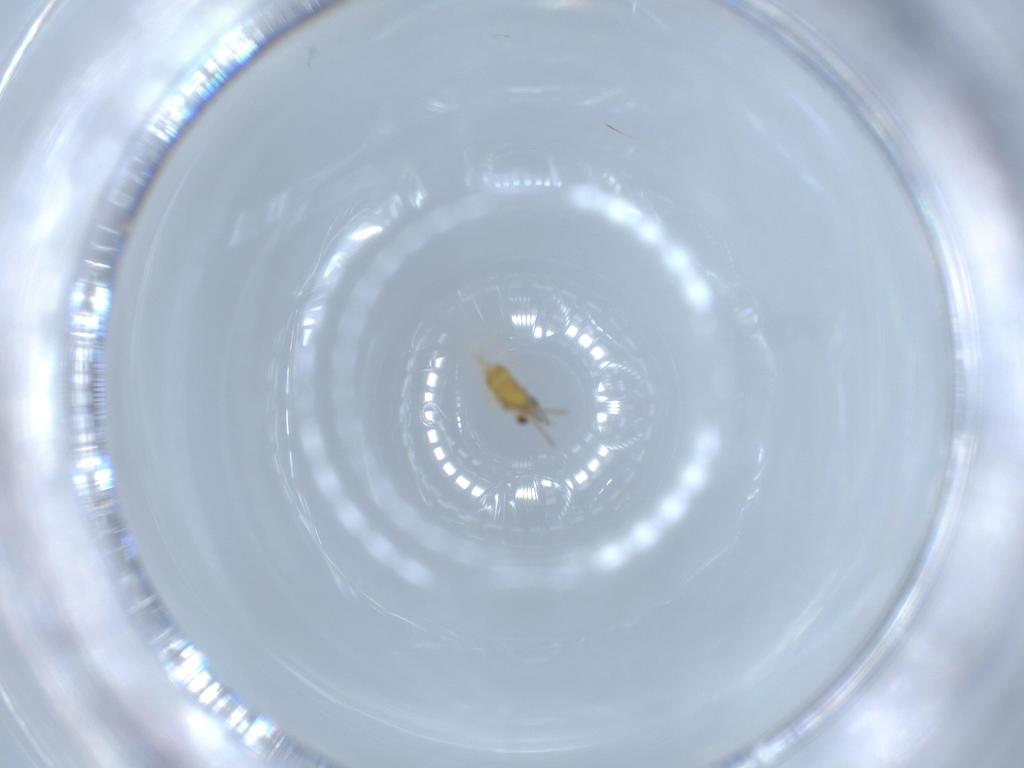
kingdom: Animalia
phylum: Arthropoda
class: Insecta
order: Hymenoptera
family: Aphelinidae
